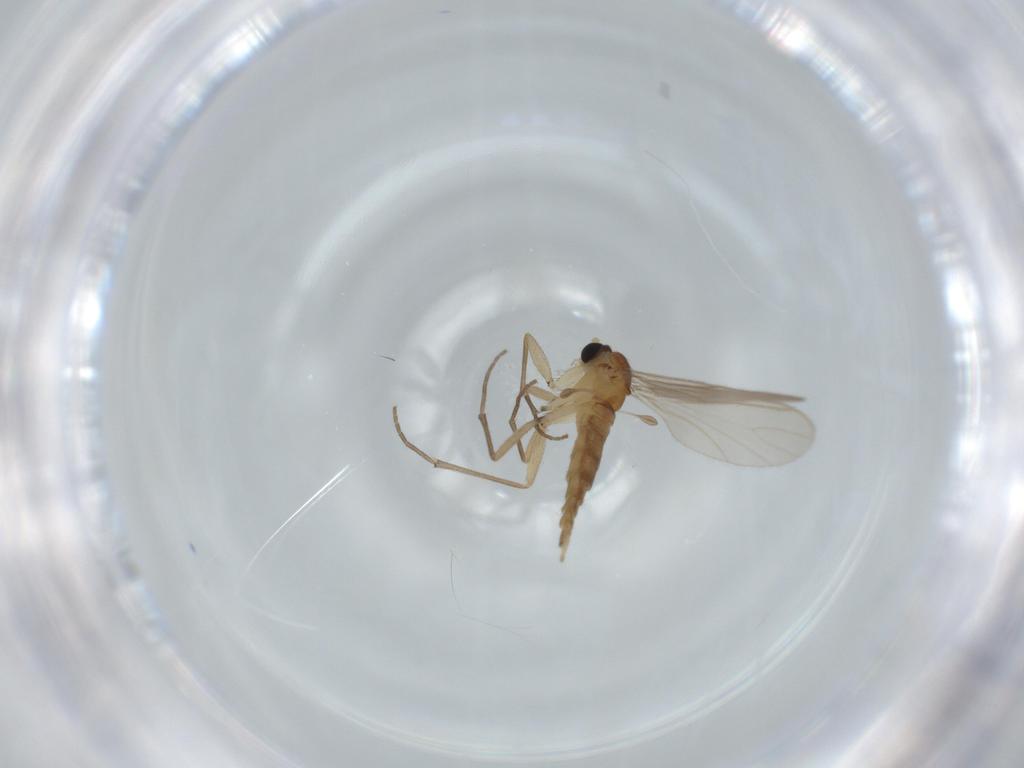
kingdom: Animalia
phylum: Arthropoda
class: Insecta
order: Diptera
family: Sciaridae
